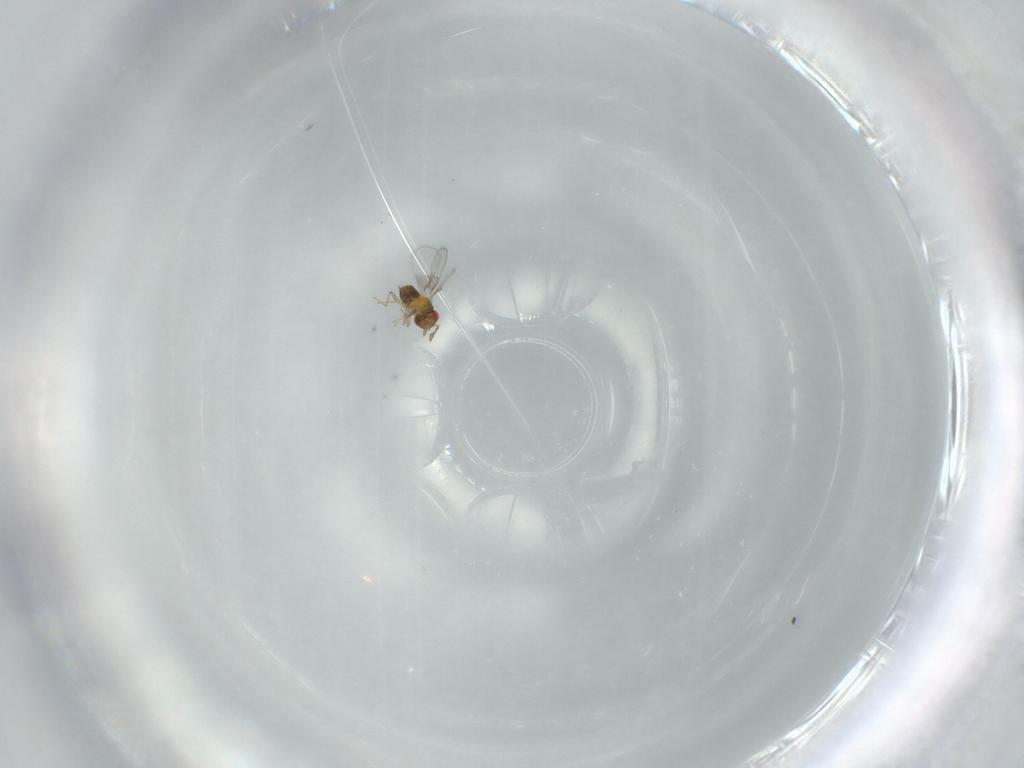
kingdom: Animalia
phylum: Arthropoda
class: Insecta
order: Hymenoptera
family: Trichogrammatidae
